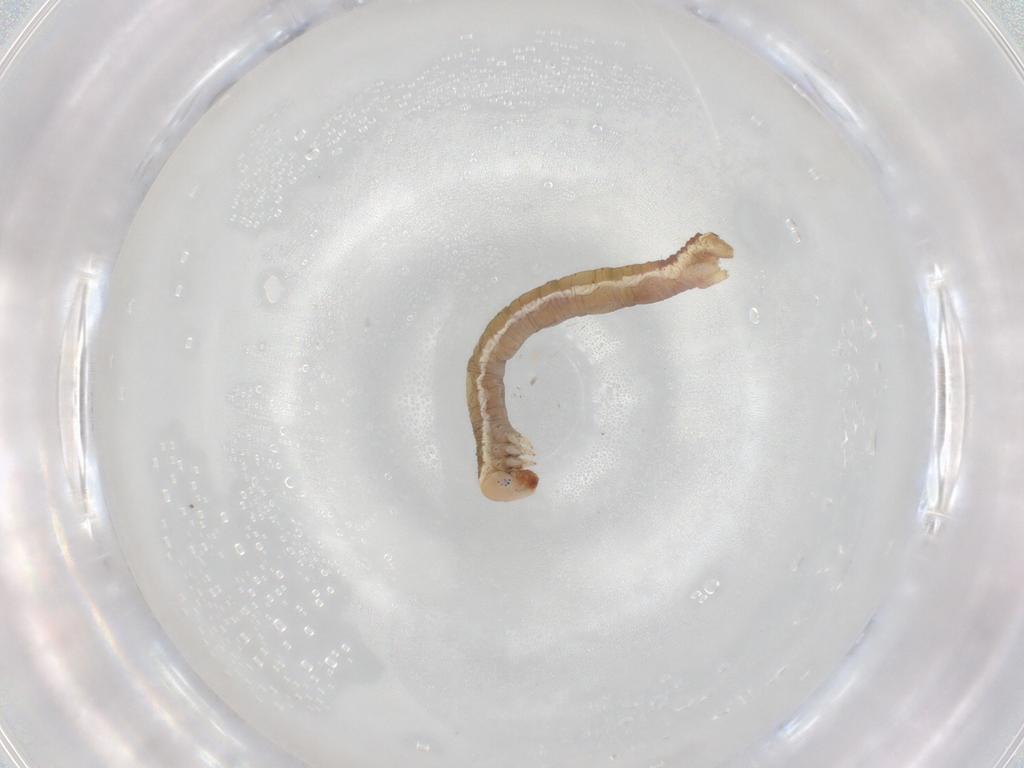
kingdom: Animalia
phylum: Arthropoda
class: Insecta
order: Lepidoptera
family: Geometridae
